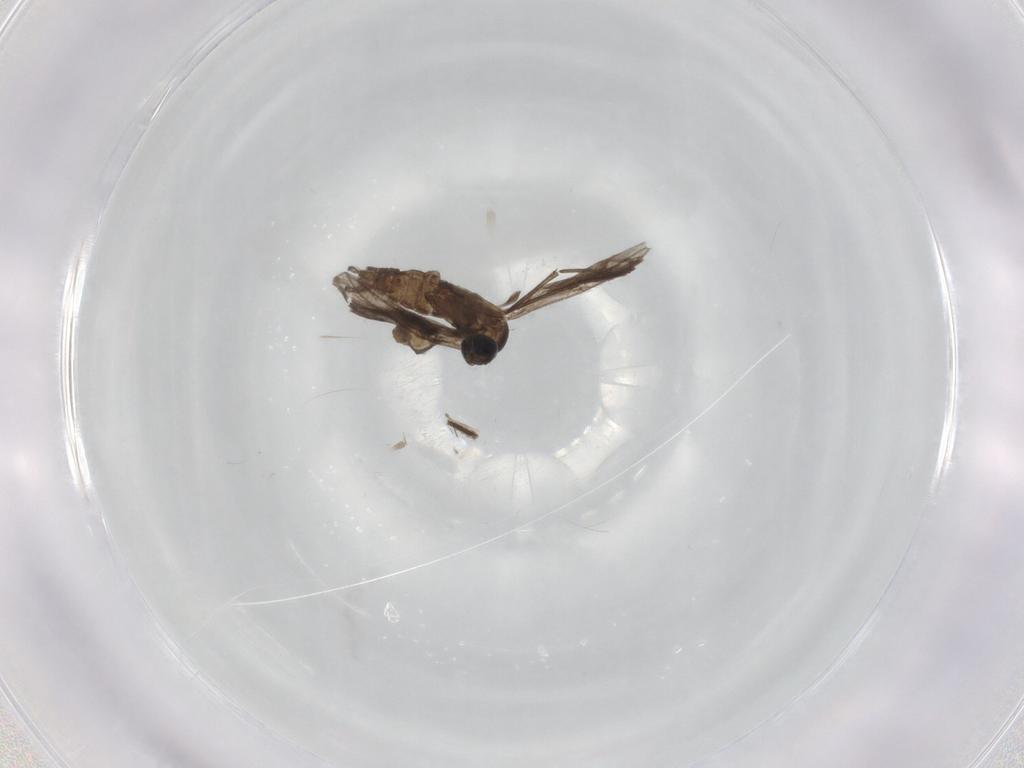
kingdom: Animalia
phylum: Arthropoda
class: Insecta
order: Diptera
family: Cecidomyiidae
